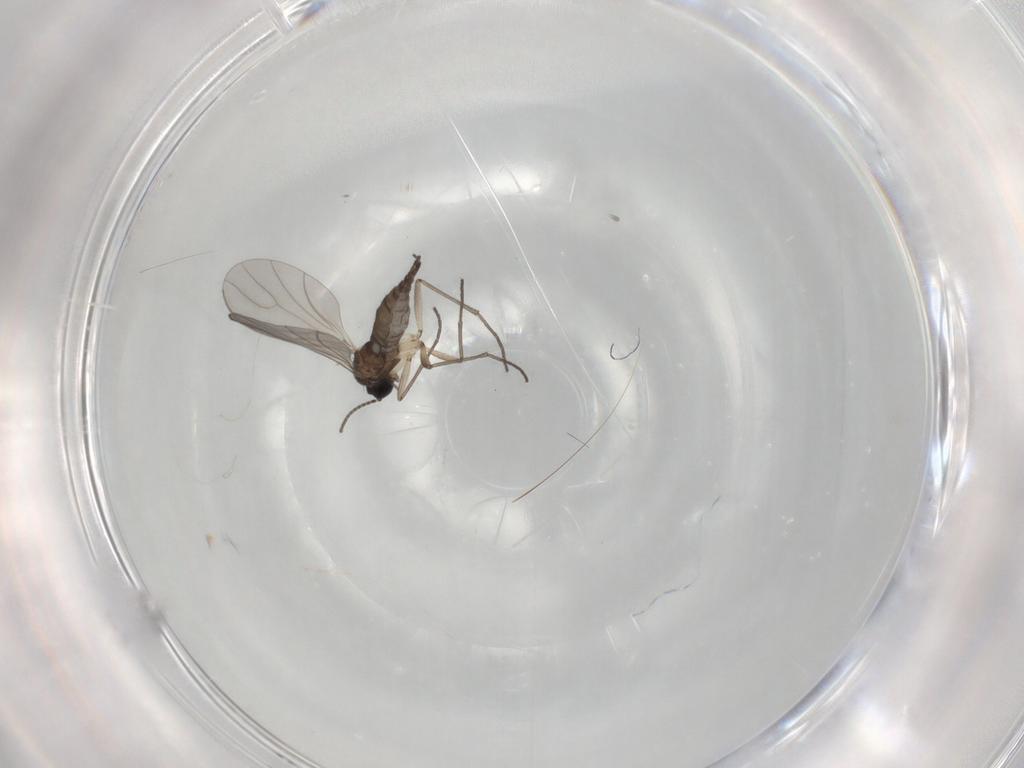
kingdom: Animalia
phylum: Arthropoda
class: Insecta
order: Diptera
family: Sciaridae
